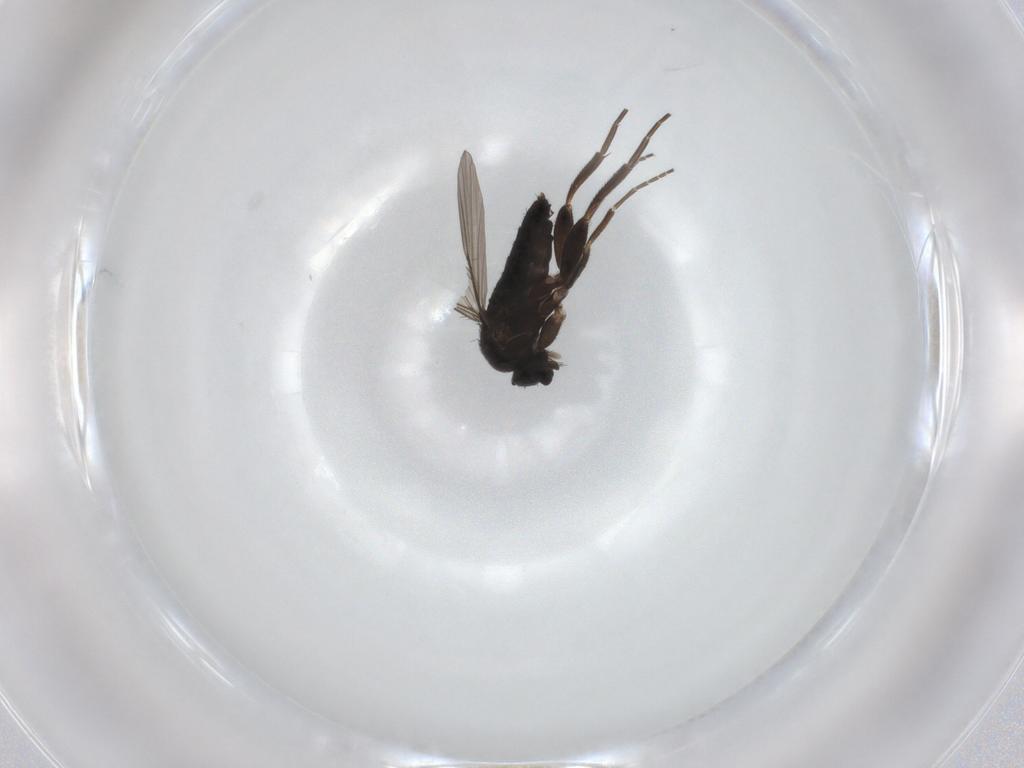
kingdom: Animalia
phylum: Arthropoda
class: Insecta
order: Diptera
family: Phoridae
